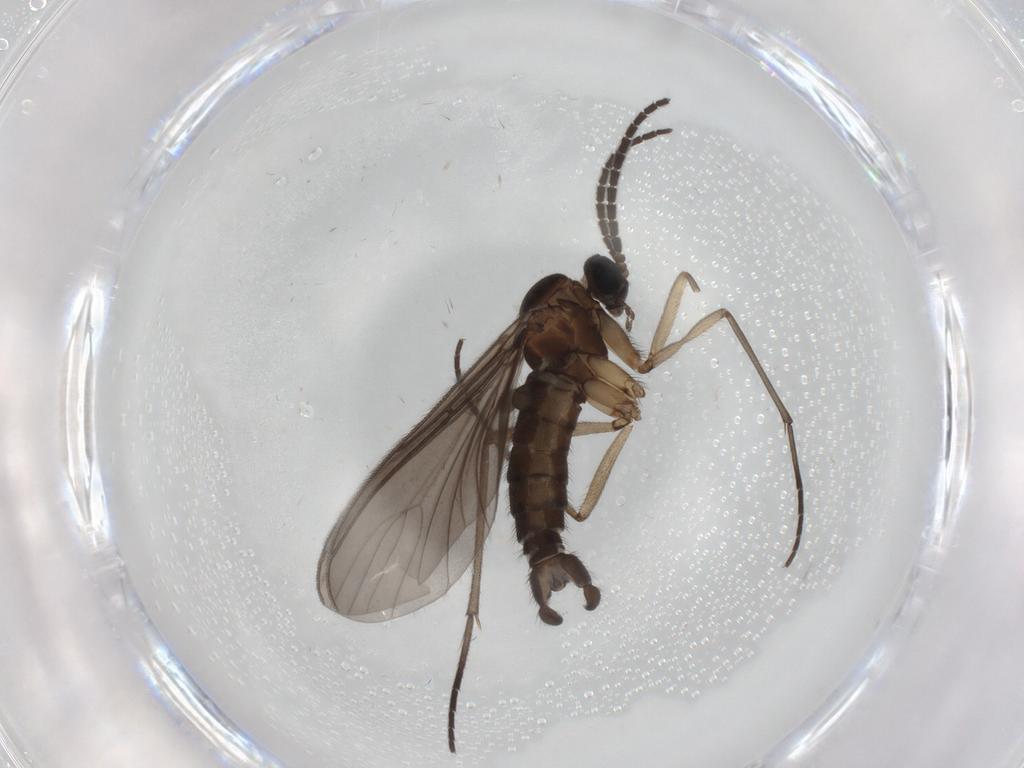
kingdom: Animalia
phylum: Arthropoda
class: Insecta
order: Diptera
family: Sciaridae
